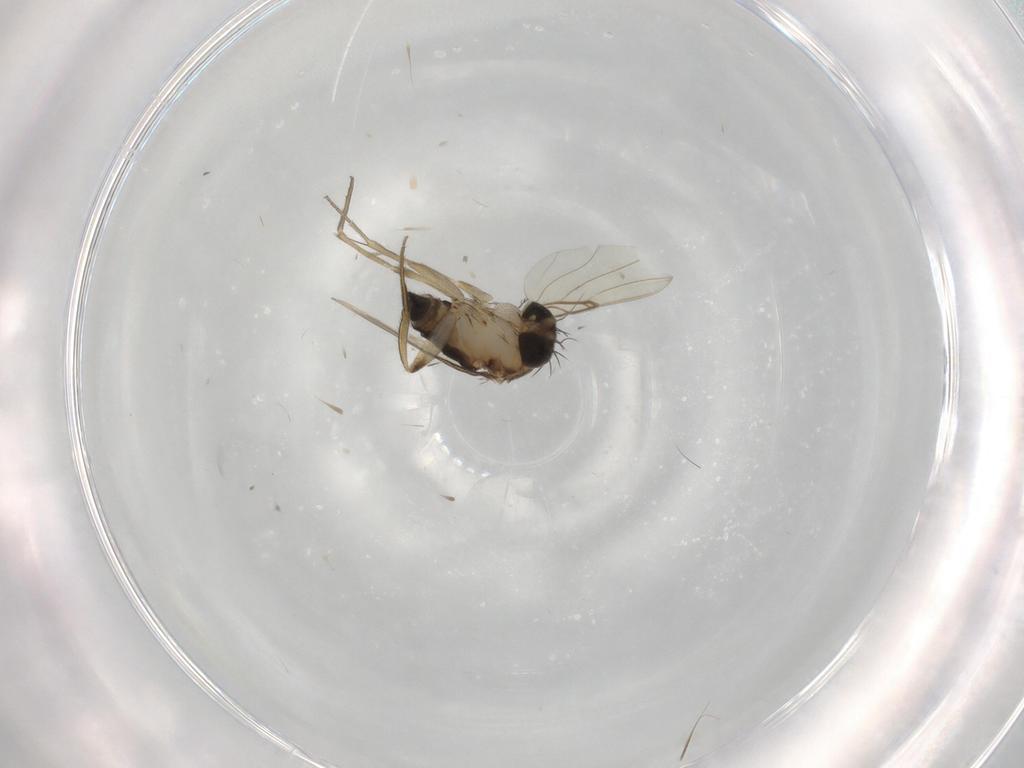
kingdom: Animalia
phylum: Arthropoda
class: Insecta
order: Diptera
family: Phoridae
